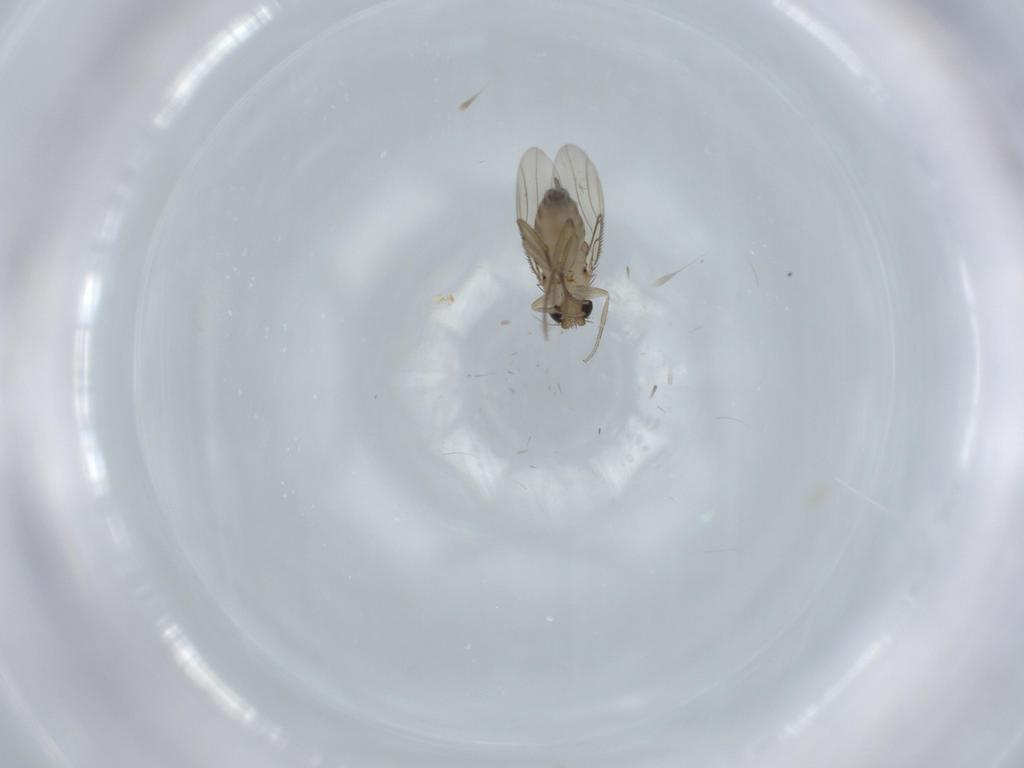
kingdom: Animalia
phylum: Arthropoda
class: Insecta
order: Diptera
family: Phoridae
